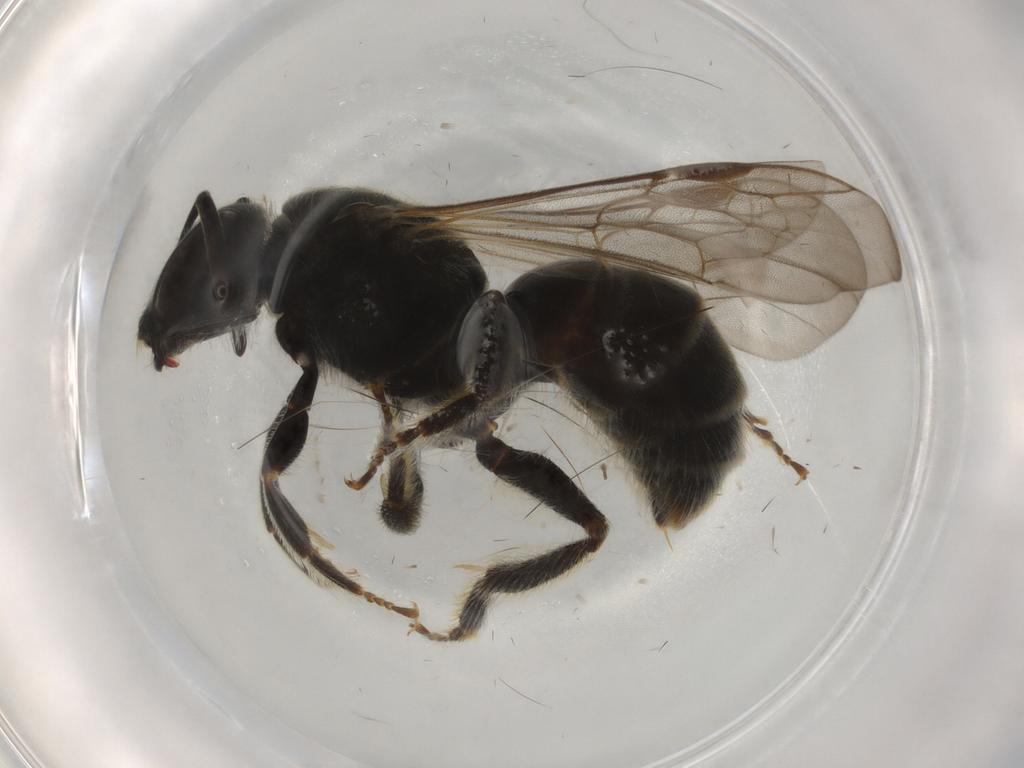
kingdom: Animalia
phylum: Arthropoda
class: Insecta
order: Hymenoptera
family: Halictidae
